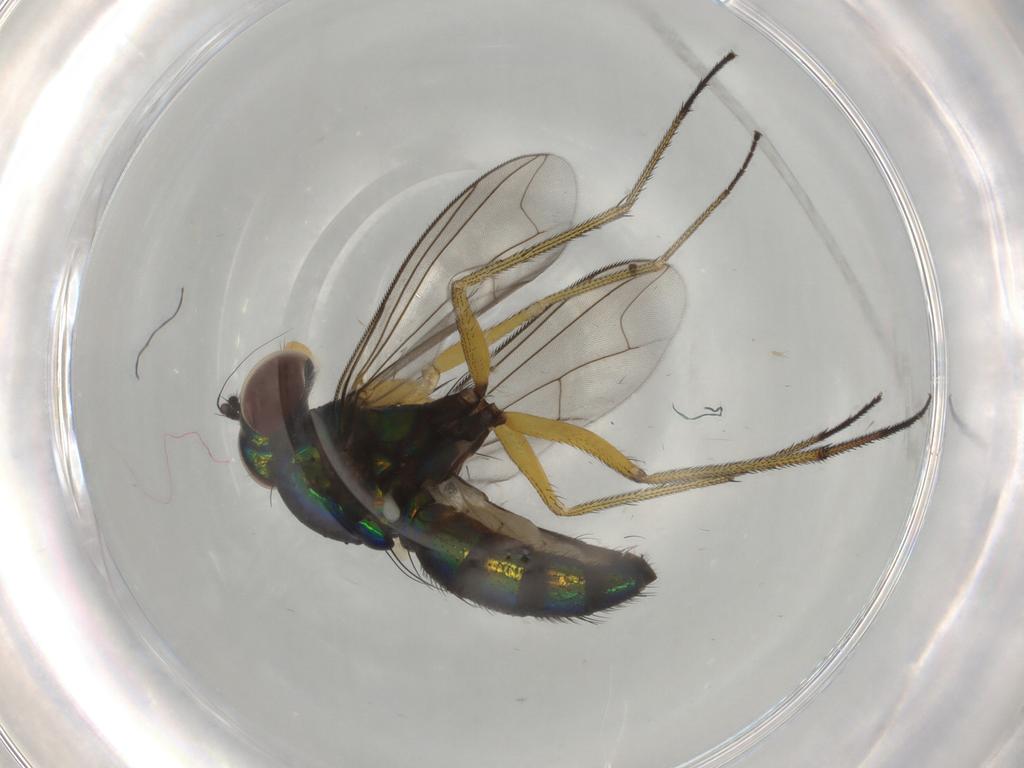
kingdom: Animalia
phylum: Arthropoda
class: Insecta
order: Diptera
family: Dolichopodidae
